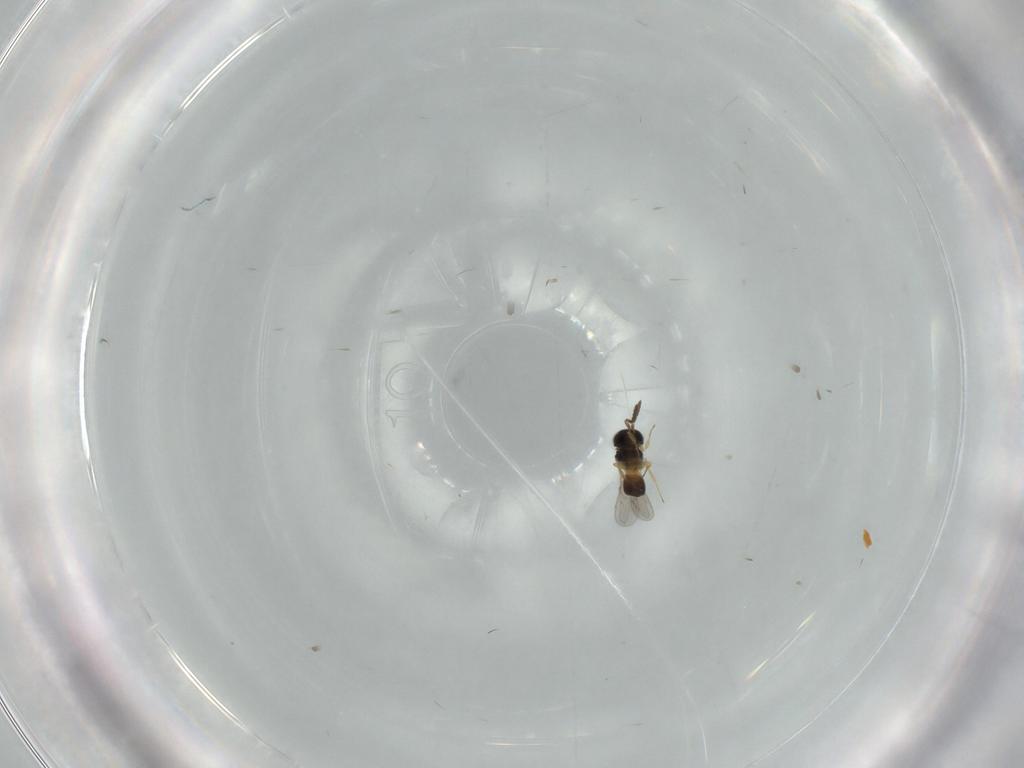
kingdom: Animalia
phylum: Arthropoda
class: Insecta
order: Hymenoptera
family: Scelionidae
